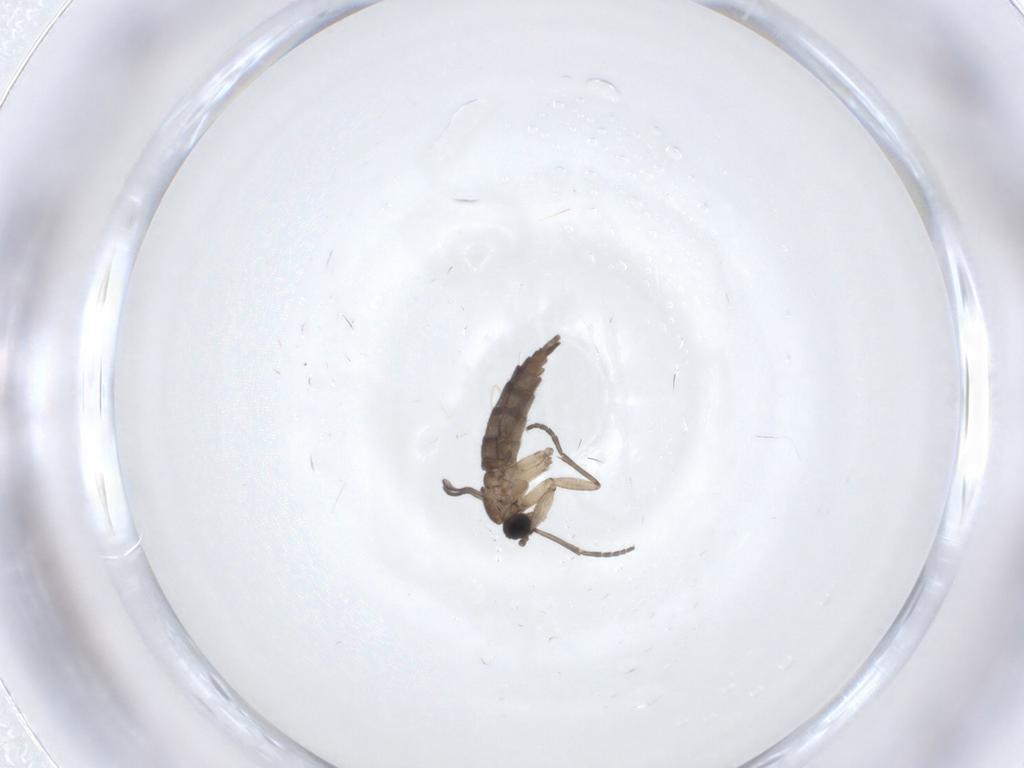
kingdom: Animalia
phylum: Arthropoda
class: Insecta
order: Diptera
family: Sciaridae
